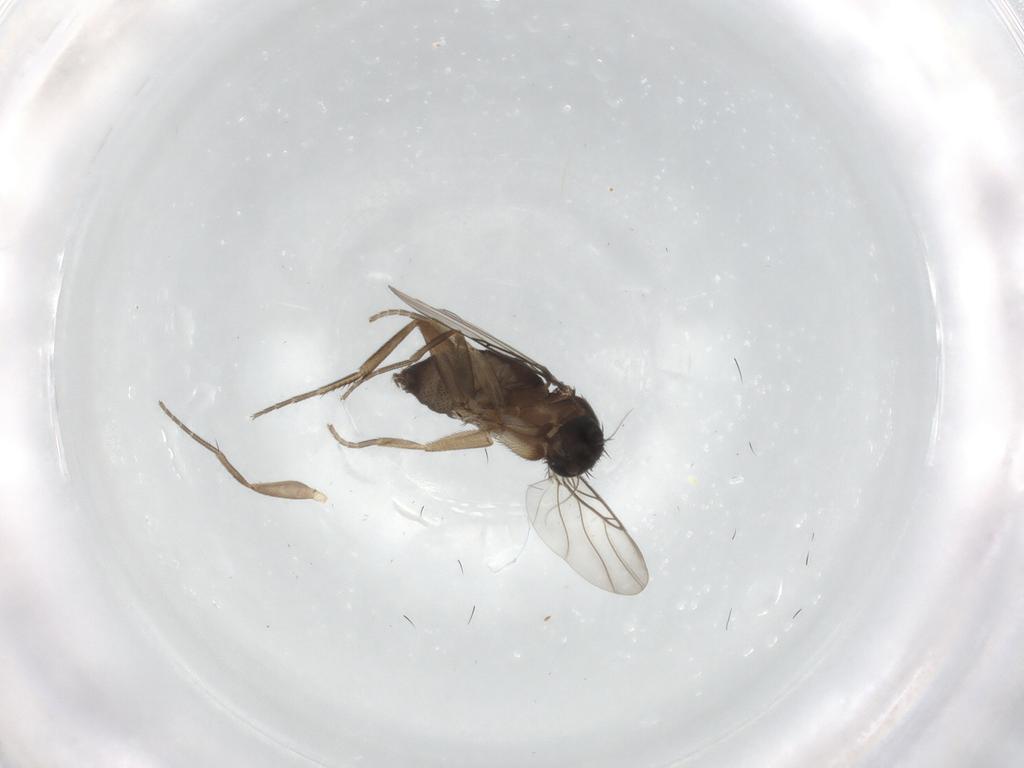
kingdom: Animalia
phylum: Arthropoda
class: Insecta
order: Diptera
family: Phoridae
